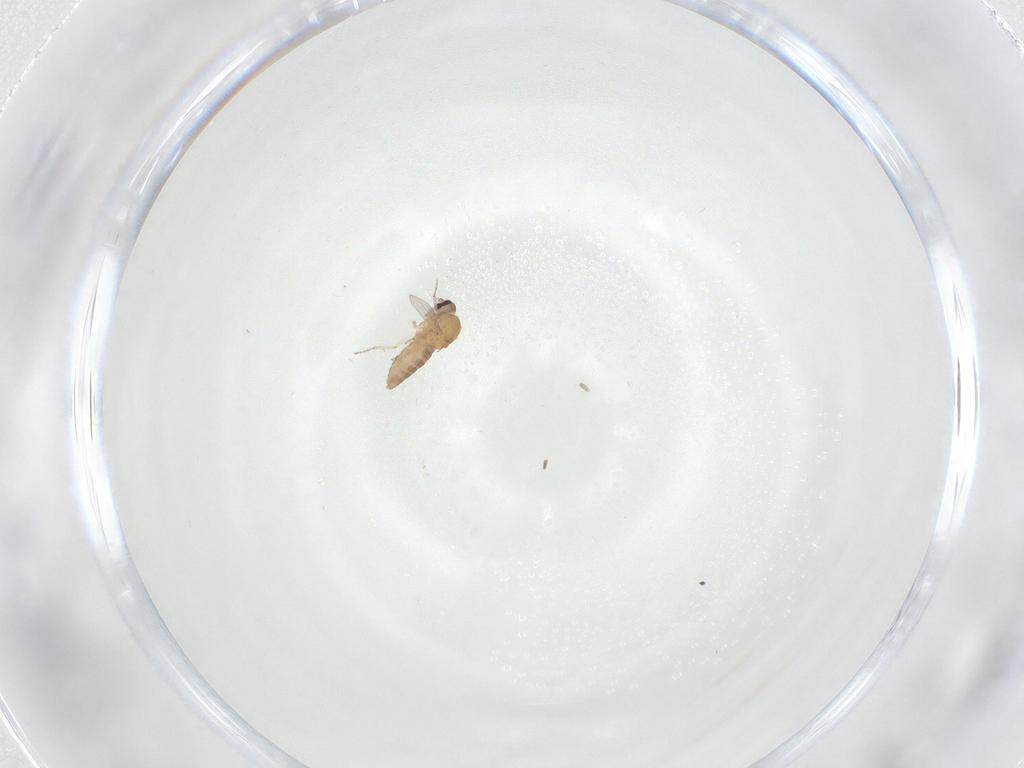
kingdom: Animalia
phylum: Arthropoda
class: Insecta
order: Diptera
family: Ceratopogonidae
